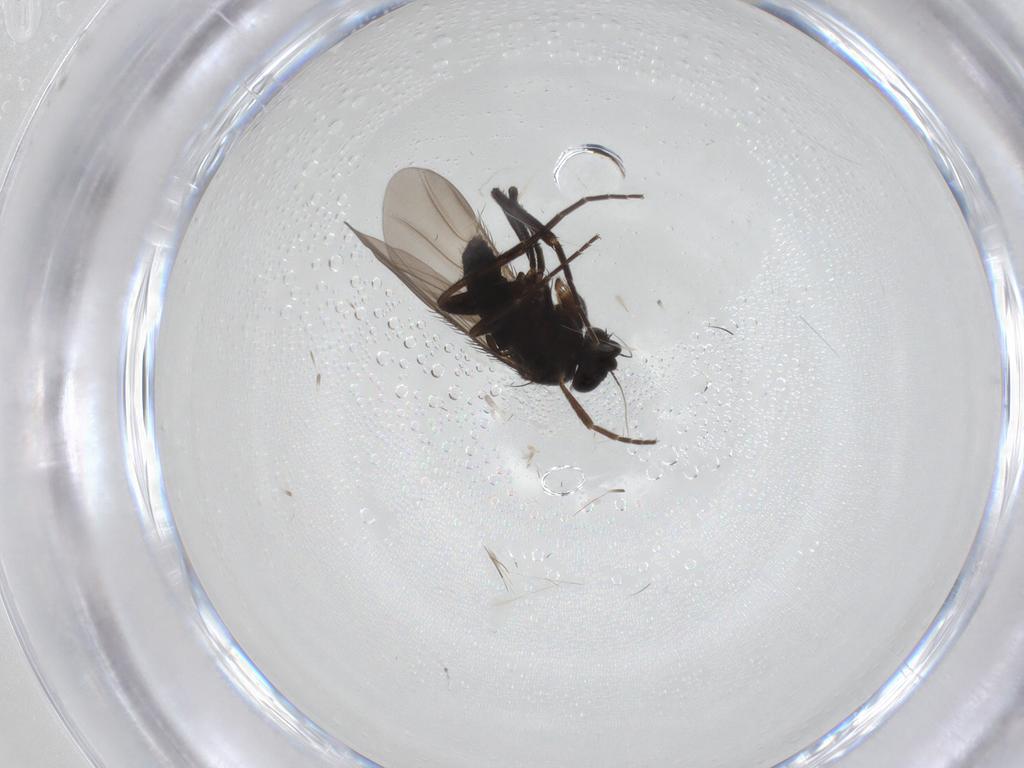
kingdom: Animalia
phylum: Arthropoda
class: Insecta
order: Diptera
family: Phoridae
